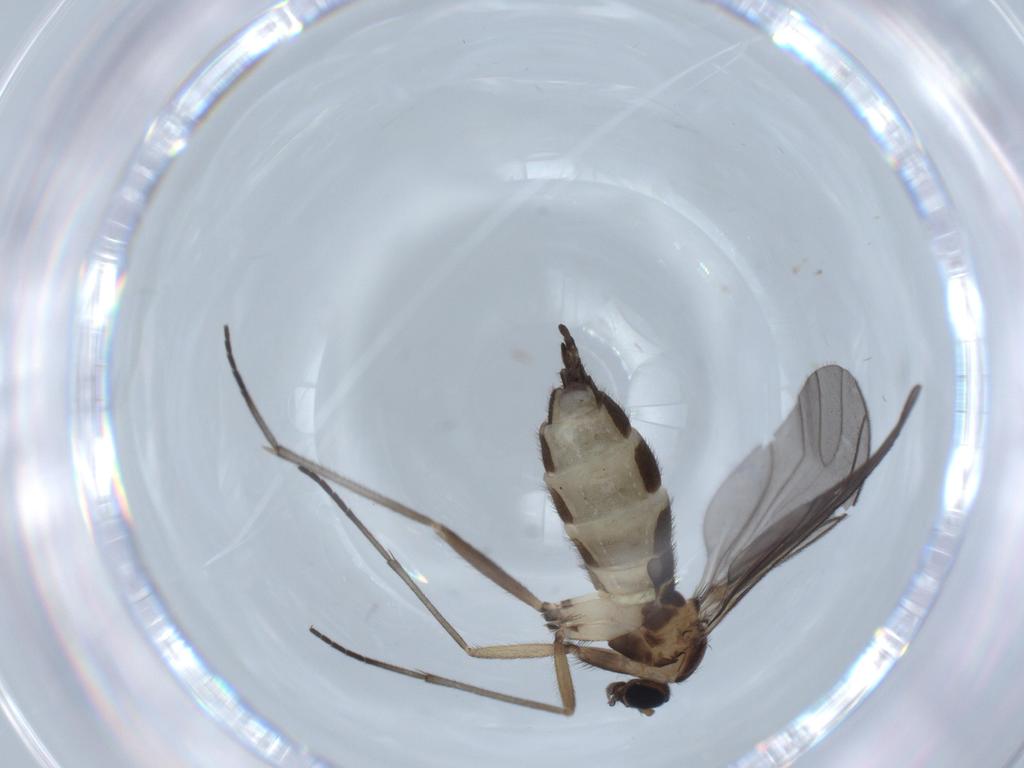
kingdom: Animalia
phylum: Arthropoda
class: Insecta
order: Diptera
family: Sciaridae
